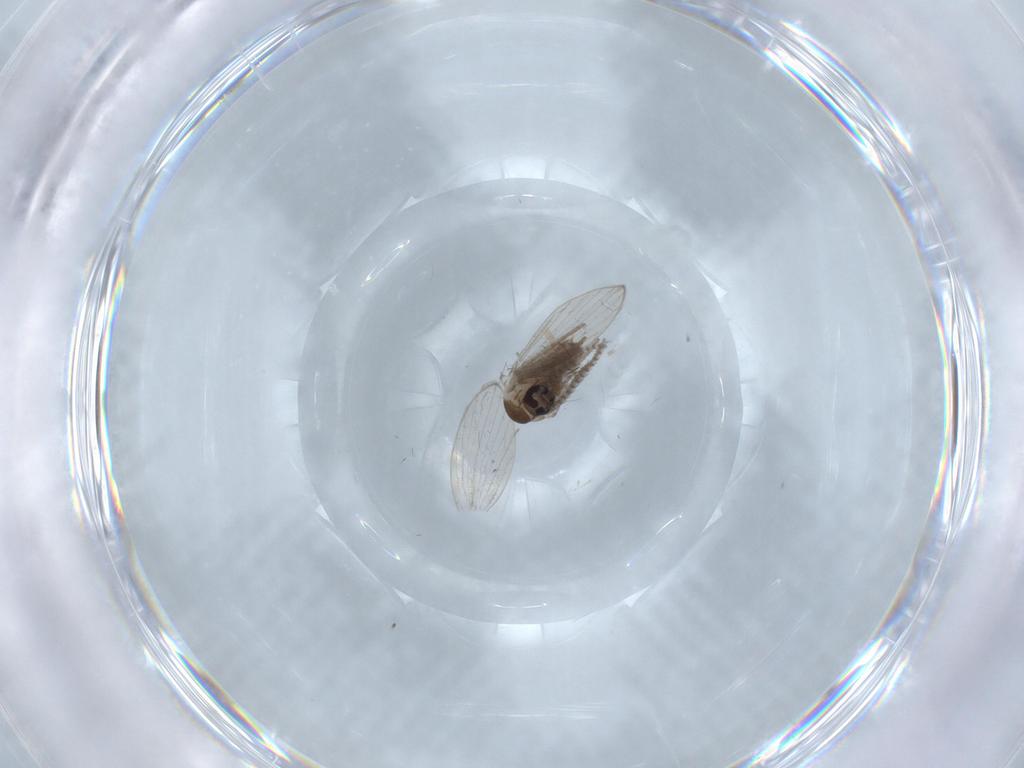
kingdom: Animalia
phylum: Arthropoda
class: Insecta
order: Diptera
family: Psychodidae
